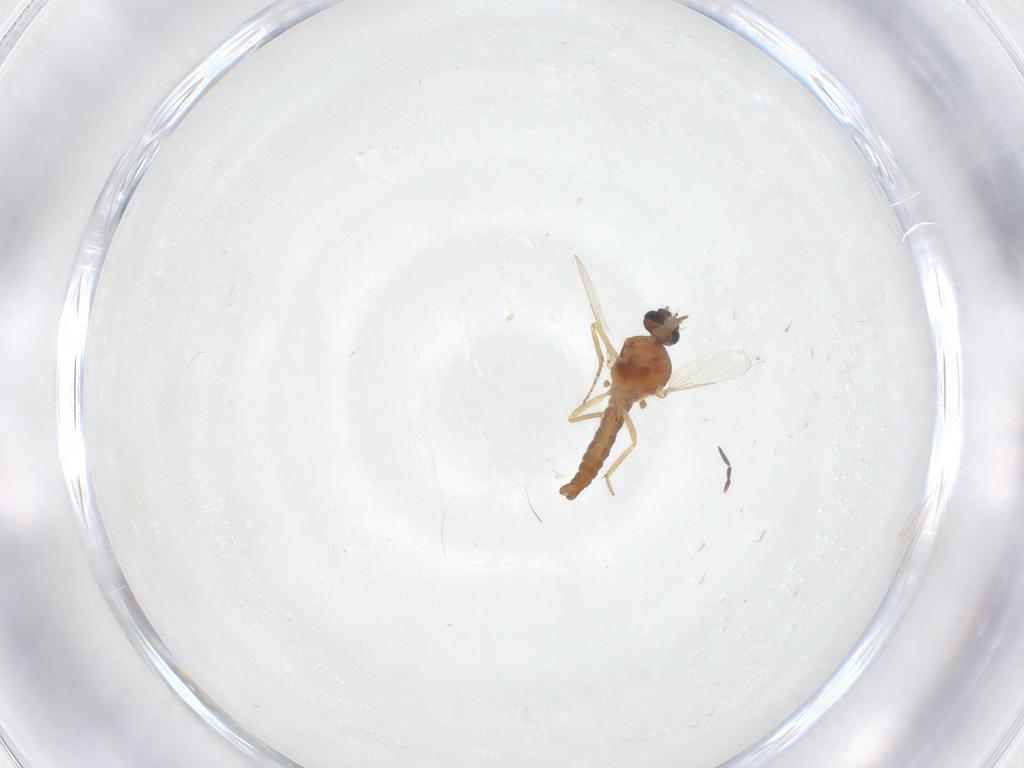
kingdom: Animalia
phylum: Arthropoda
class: Insecta
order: Diptera
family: Ceratopogonidae
